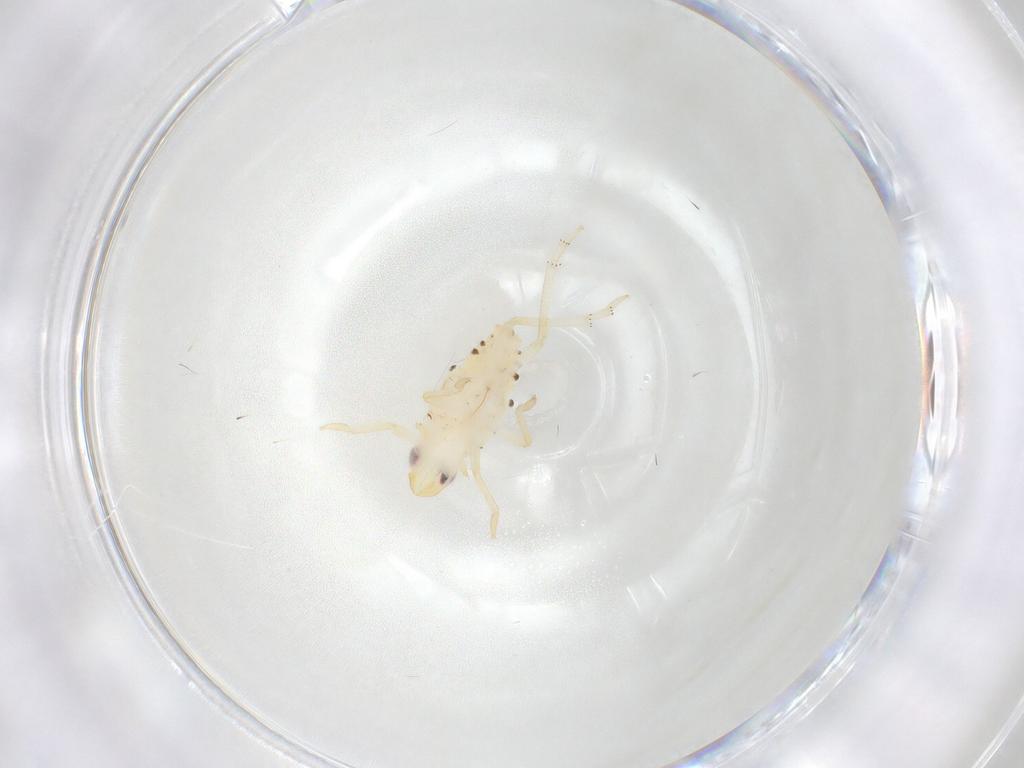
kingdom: Animalia
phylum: Arthropoda
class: Insecta
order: Hemiptera
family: Tropiduchidae
